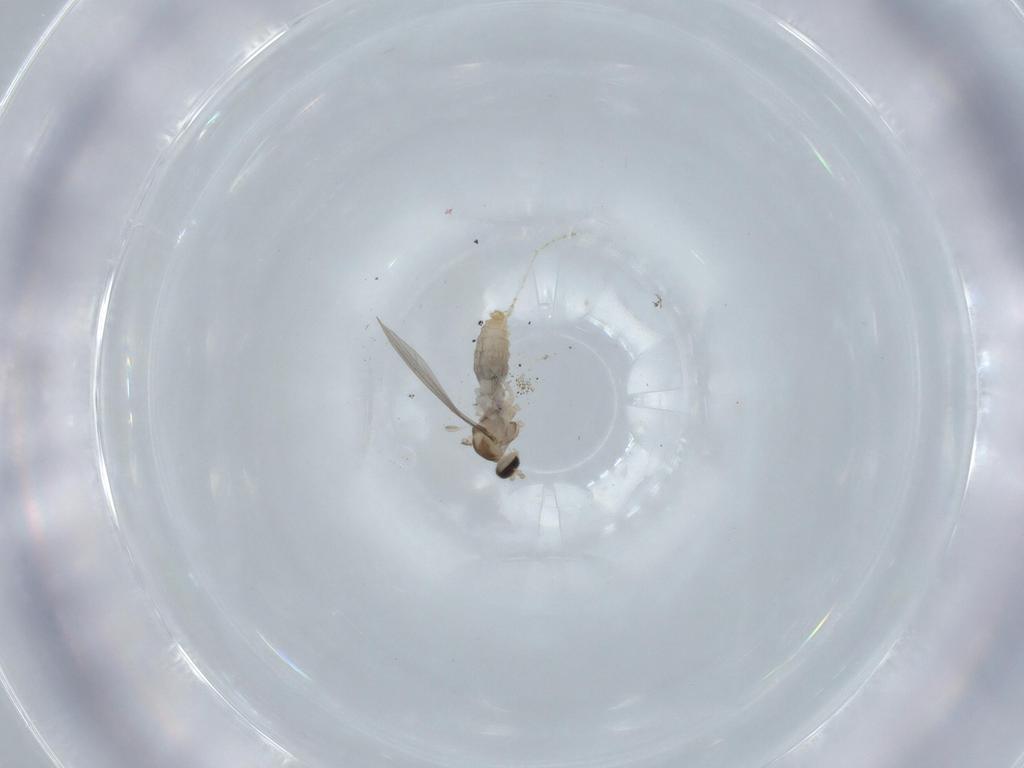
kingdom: Animalia
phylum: Arthropoda
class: Insecta
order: Diptera
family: Cecidomyiidae
